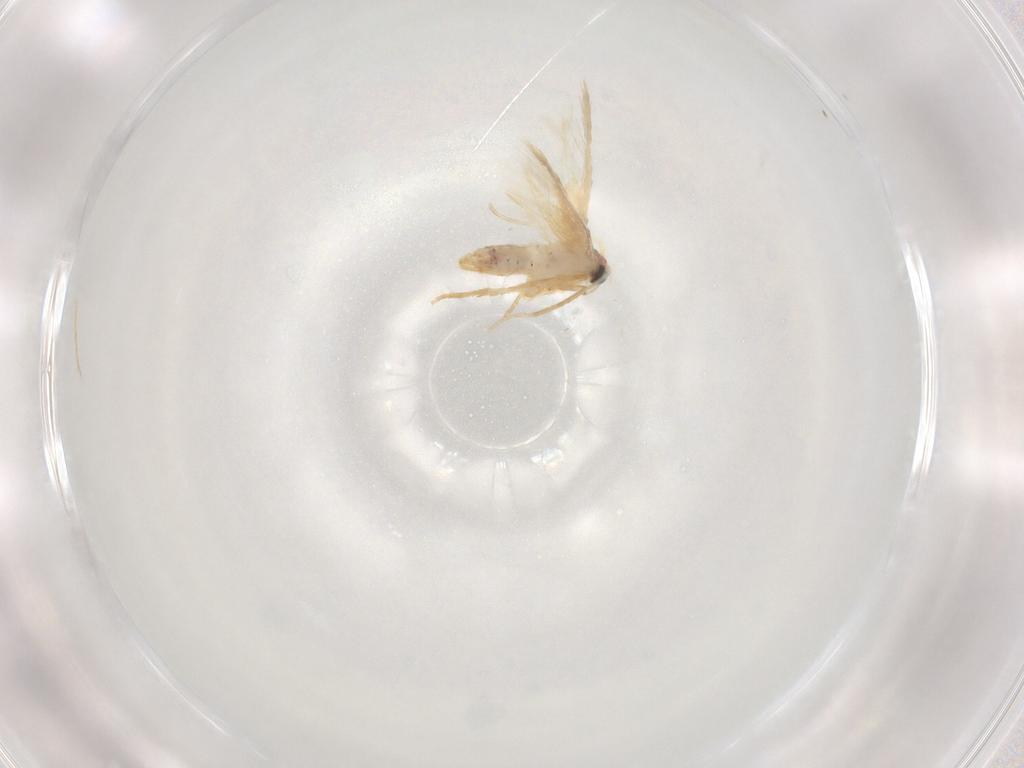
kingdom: Animalia
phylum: Arthropoda
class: Insecta
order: Lepidoptera
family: Nepticulidae
